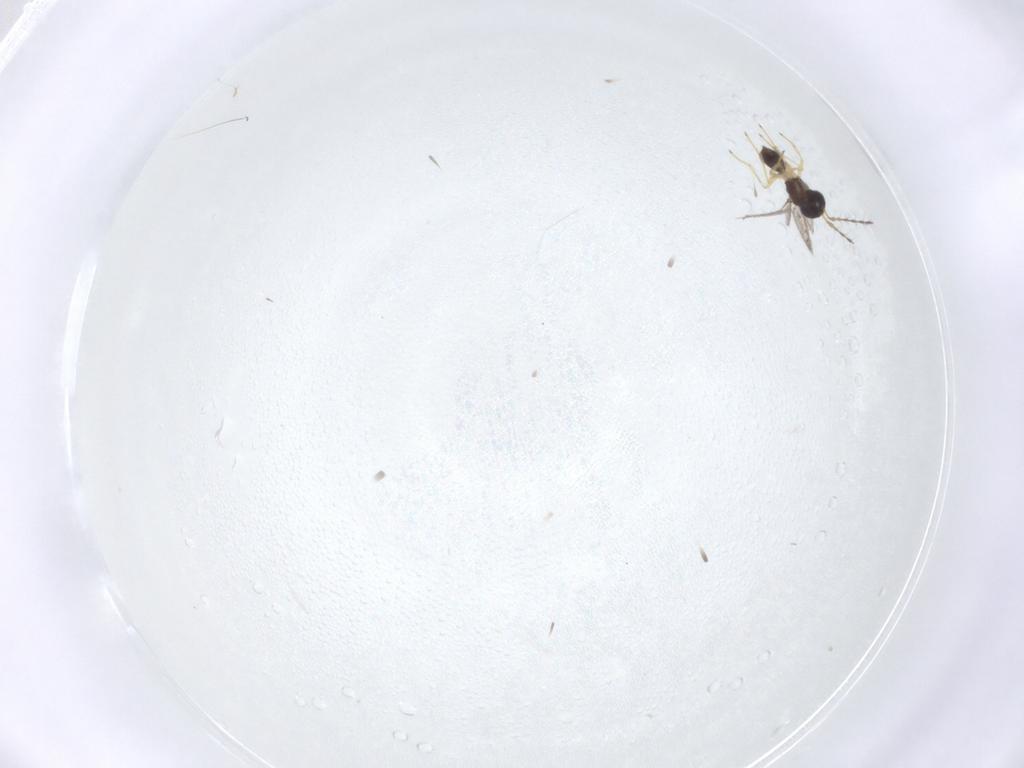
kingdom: Animalia
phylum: Arthropoda
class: Insecta
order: Hymenoptera
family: Diparidae
